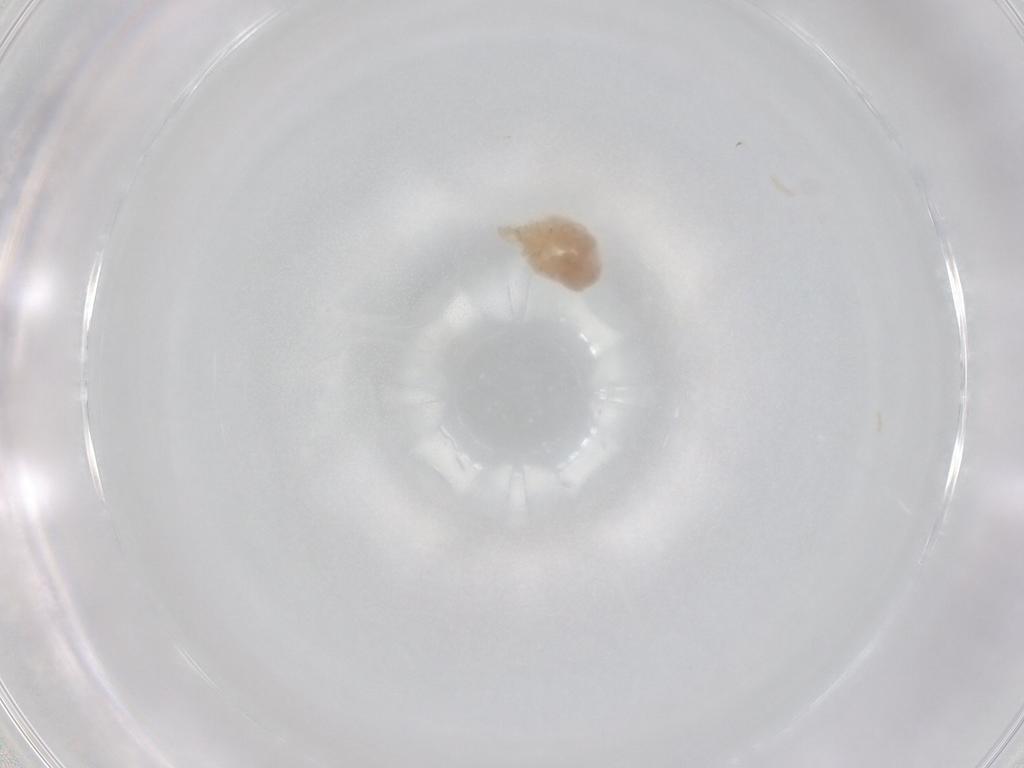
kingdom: Animalia
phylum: Arthropoda
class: Arachnida
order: Trombidiformes
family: Anystidae
